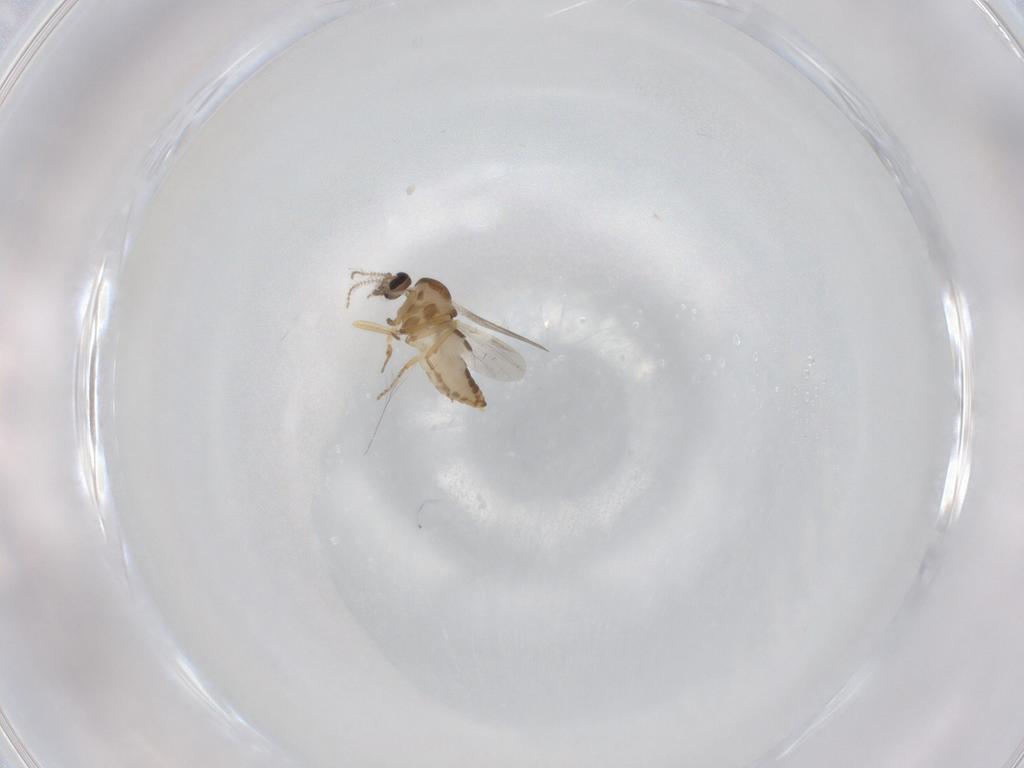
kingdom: Animalia
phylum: Arthropoda
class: Insecta
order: Diptera
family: Ceratopogonidae
